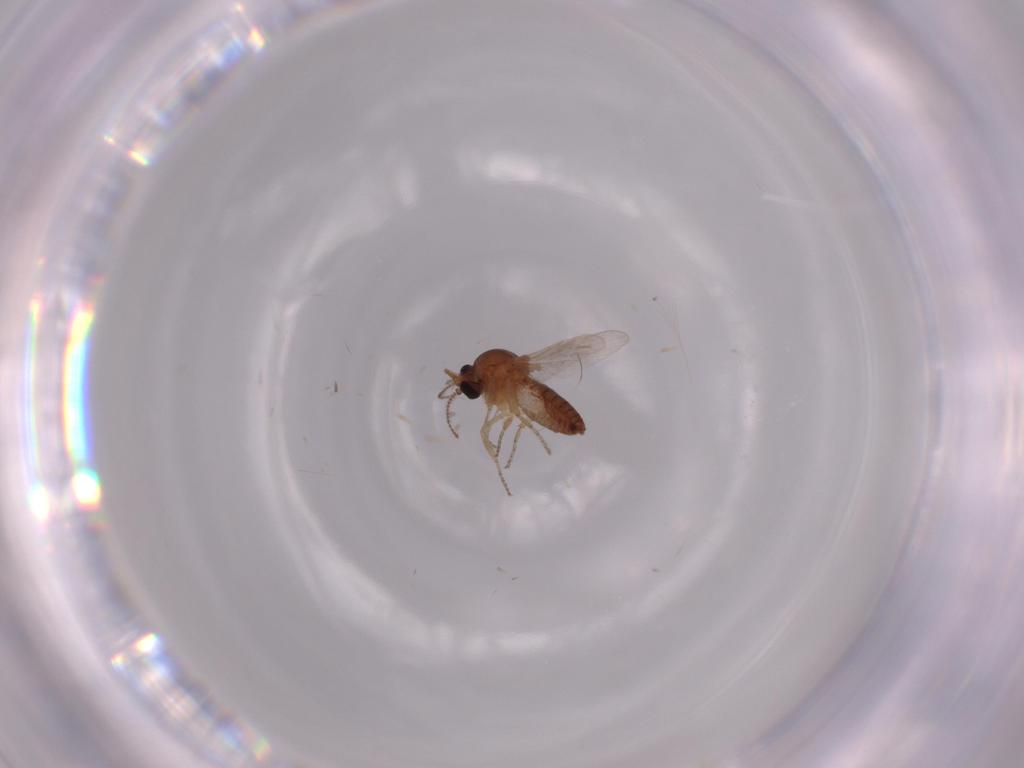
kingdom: Animalia
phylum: Arthropoda
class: Insecta
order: Diptera
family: Ceratopogonidae
